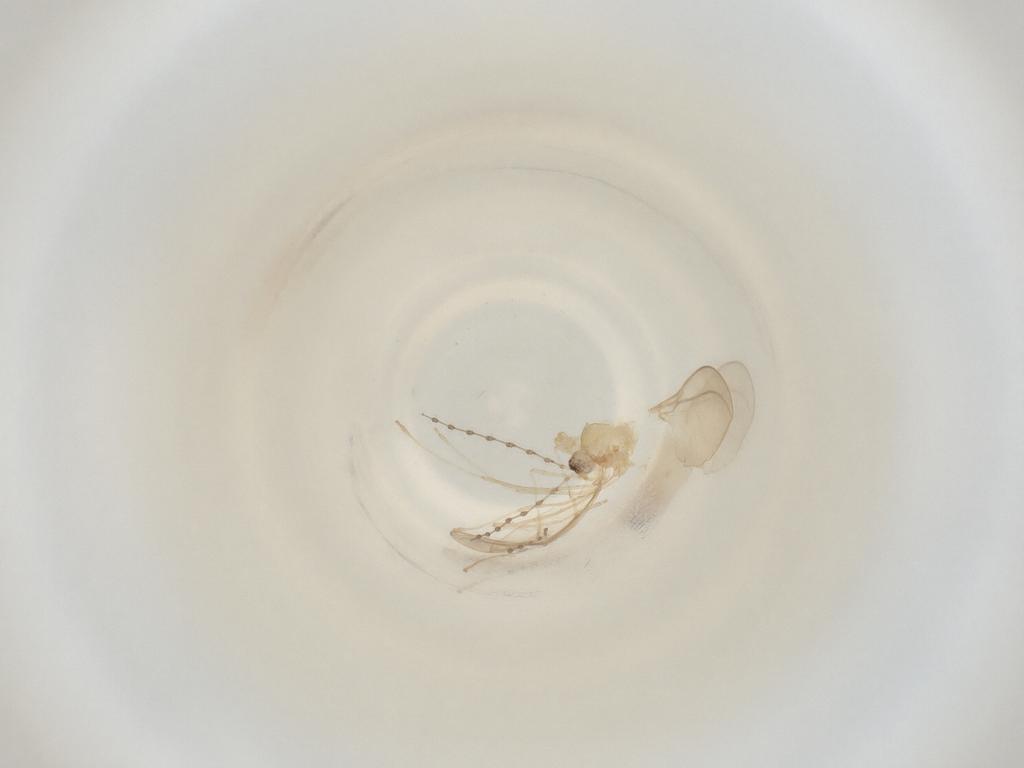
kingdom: Animalia
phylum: Arthropoda
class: Insecta
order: Diptera
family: Cecidomyiidae
